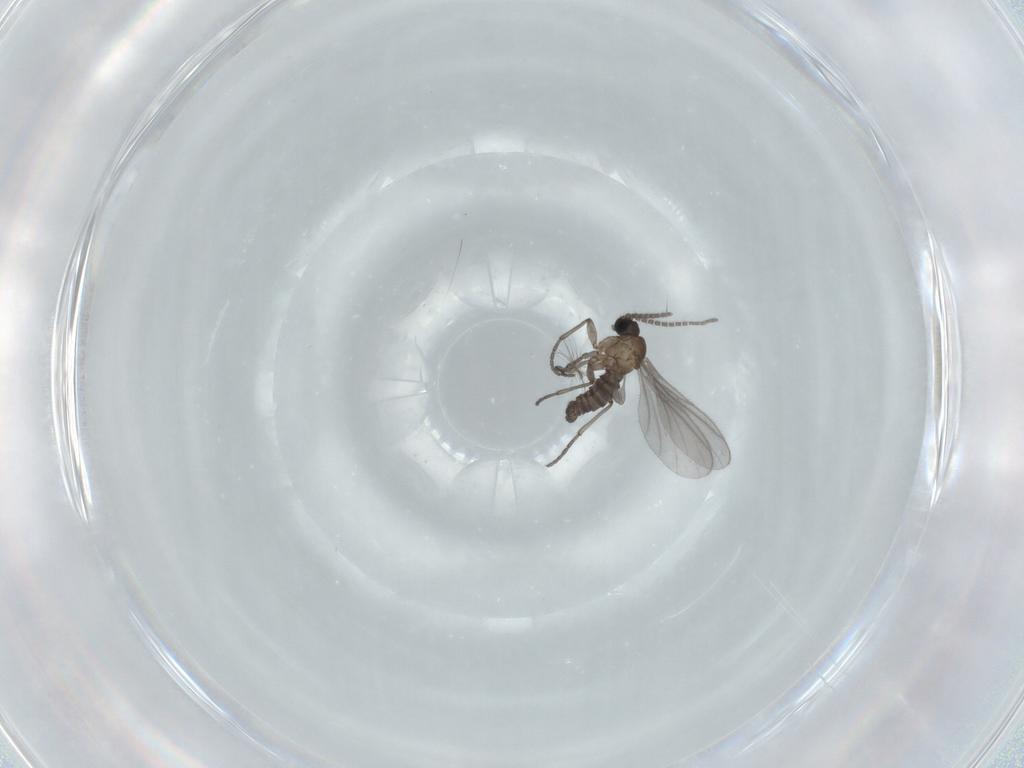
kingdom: Animalia
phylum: Arthropoda
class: Insecta
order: Diptera
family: Sciaridae
